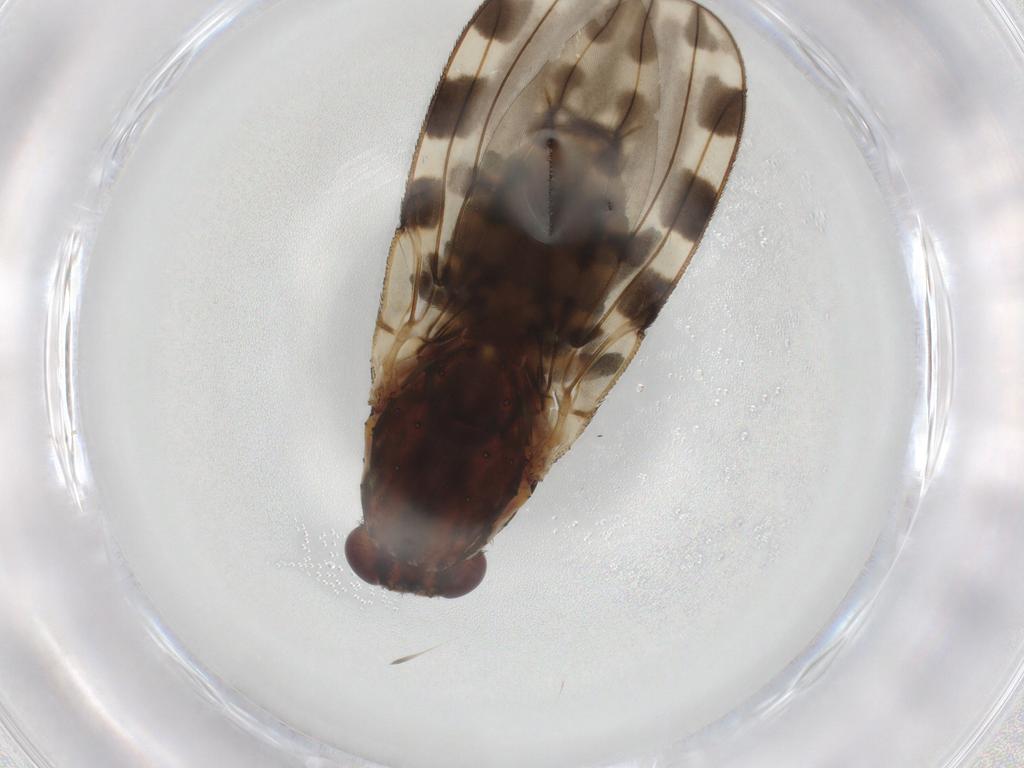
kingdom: Animalia
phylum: Arthropoda
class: Insecta
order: Diptera
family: Heleomyzidae
